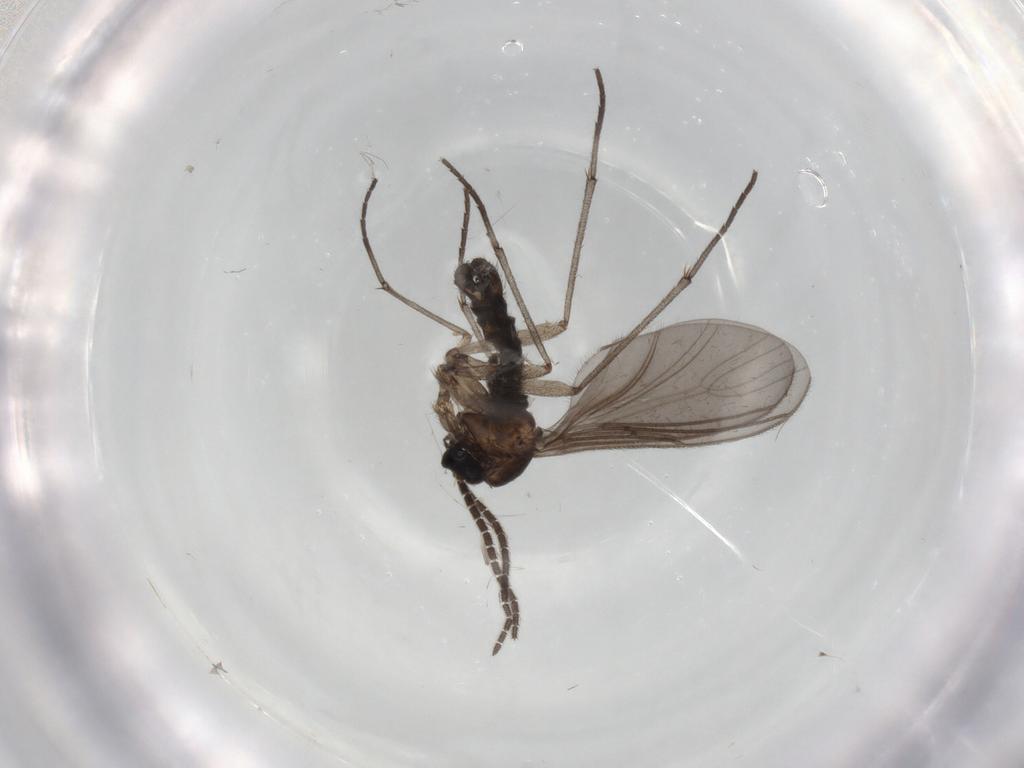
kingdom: Animalia
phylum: Arthropoda
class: Insecta
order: Diptera
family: Sciaridae
